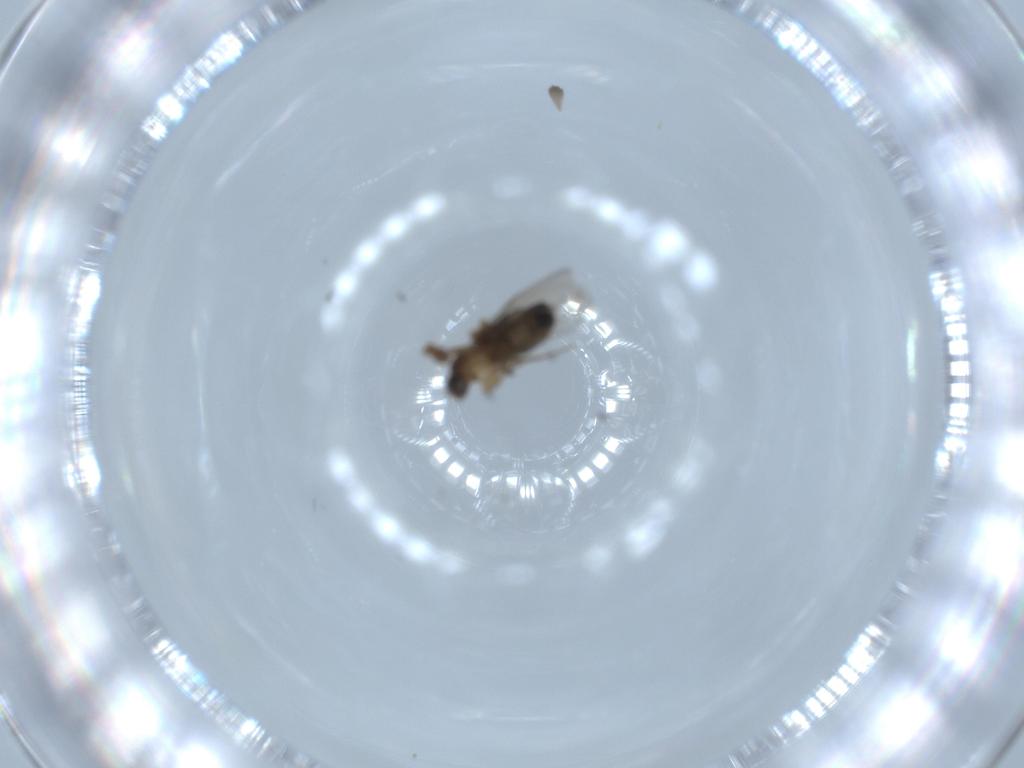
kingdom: Animalia
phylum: Arthropoda
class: Insecta
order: Diptera
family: Phoridae
